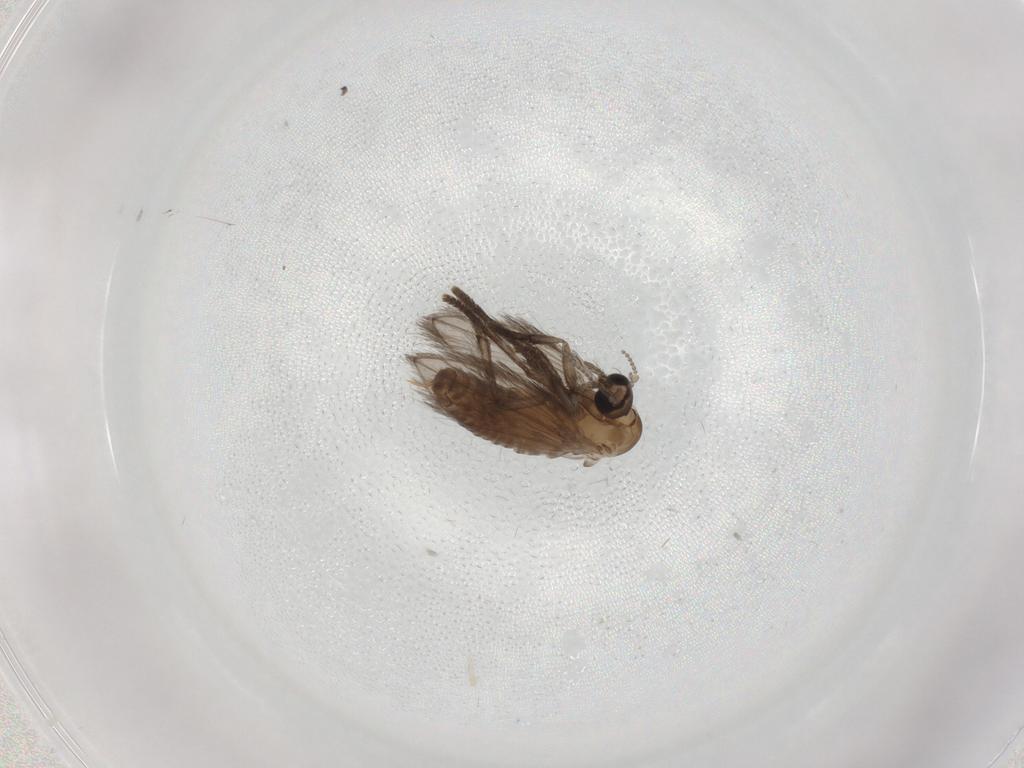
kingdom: Animalia
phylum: Arthropoda
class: Insecta
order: Diptera
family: Psychodidae
